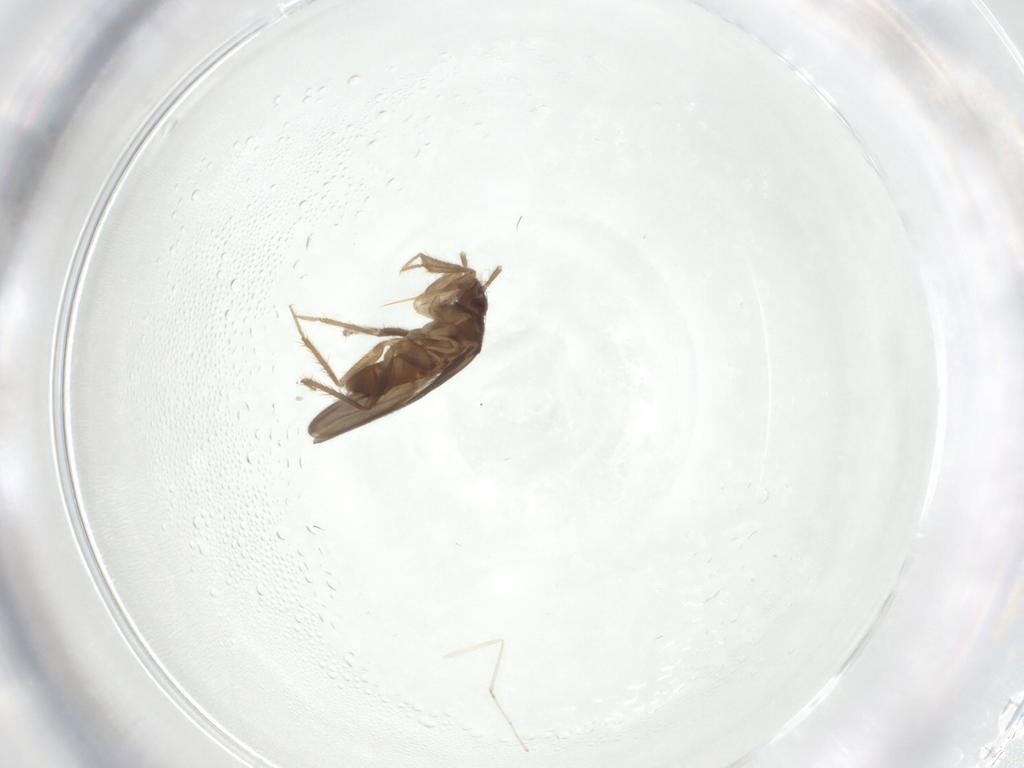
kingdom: Animalia
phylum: Arthropoda
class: Insecta
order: Hemiptera
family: Ceratocombidae
